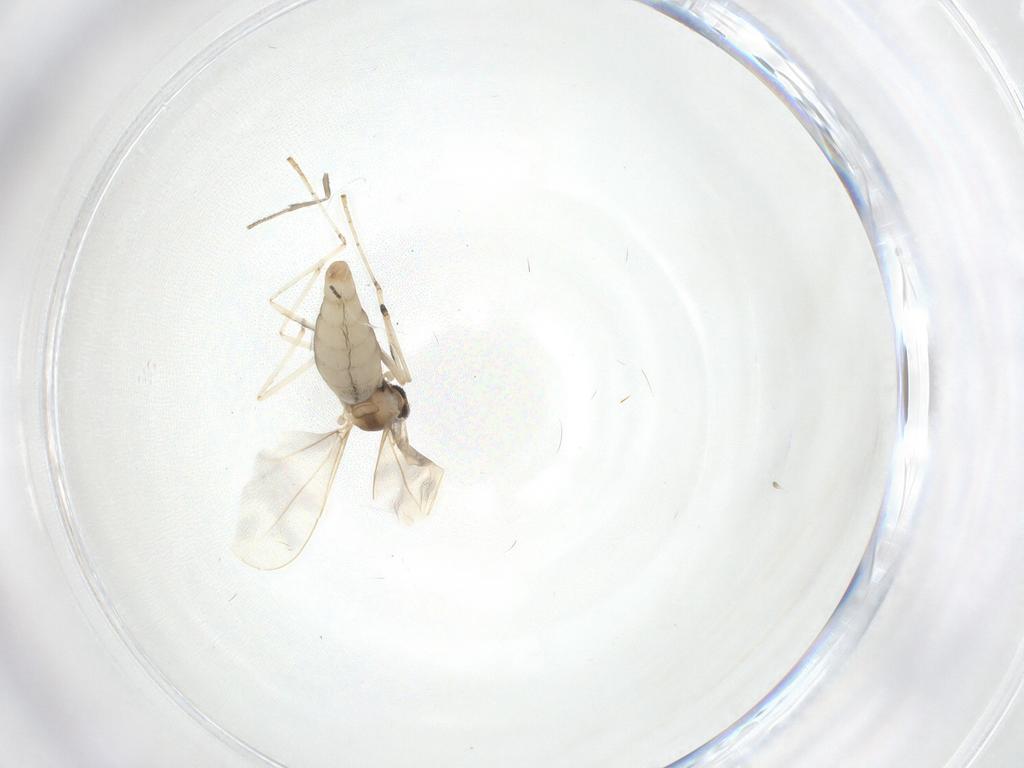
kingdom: Animalia
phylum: Arthropoda
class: Insecta
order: Diptera
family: Cecidomyiidae
